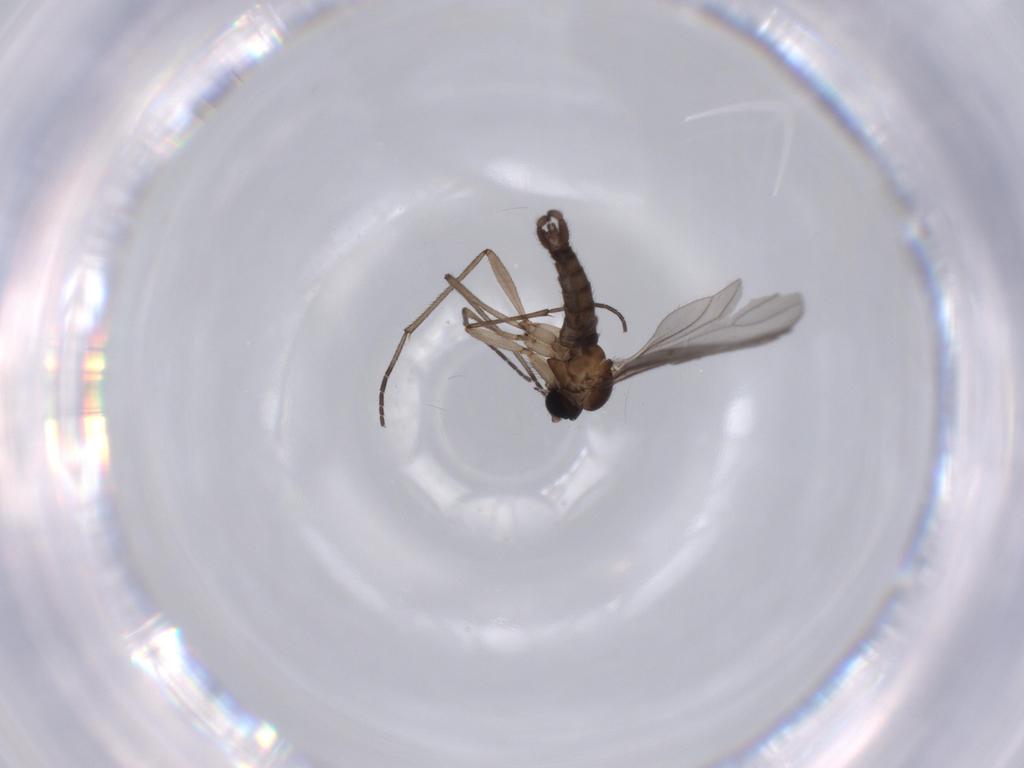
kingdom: Animalia
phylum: Arthropoda
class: Insecta
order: Diptera
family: Sciaridae
